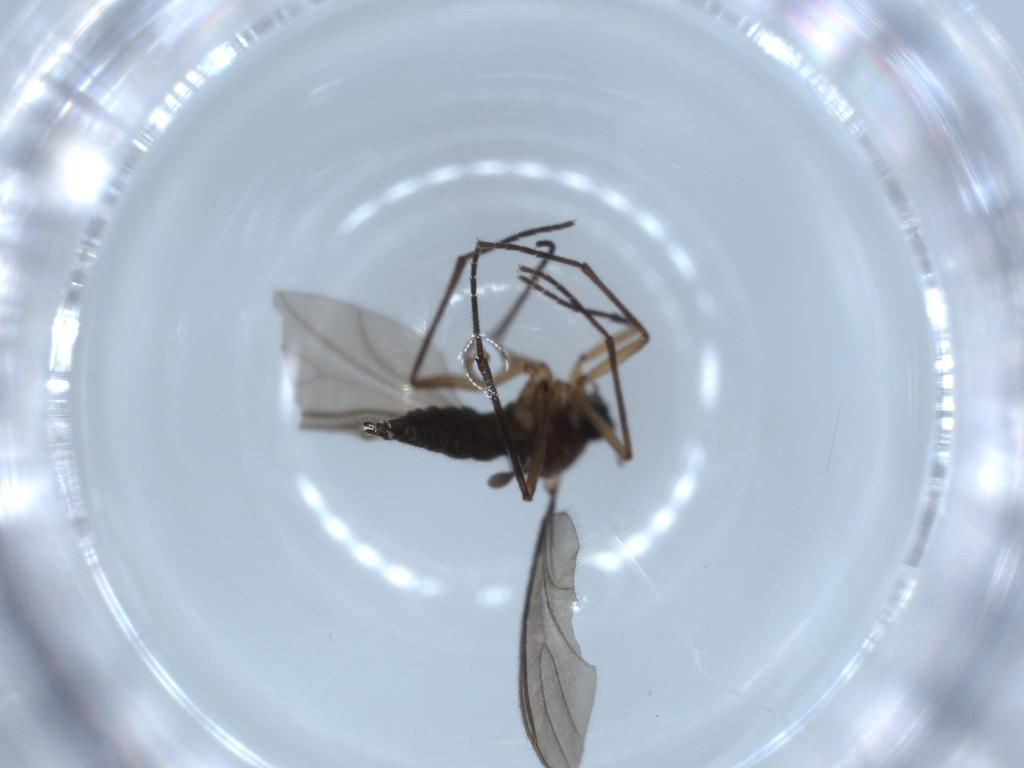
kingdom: Animalia
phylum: Arthropoda
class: Insecta
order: Diptera
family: Sciaridae
